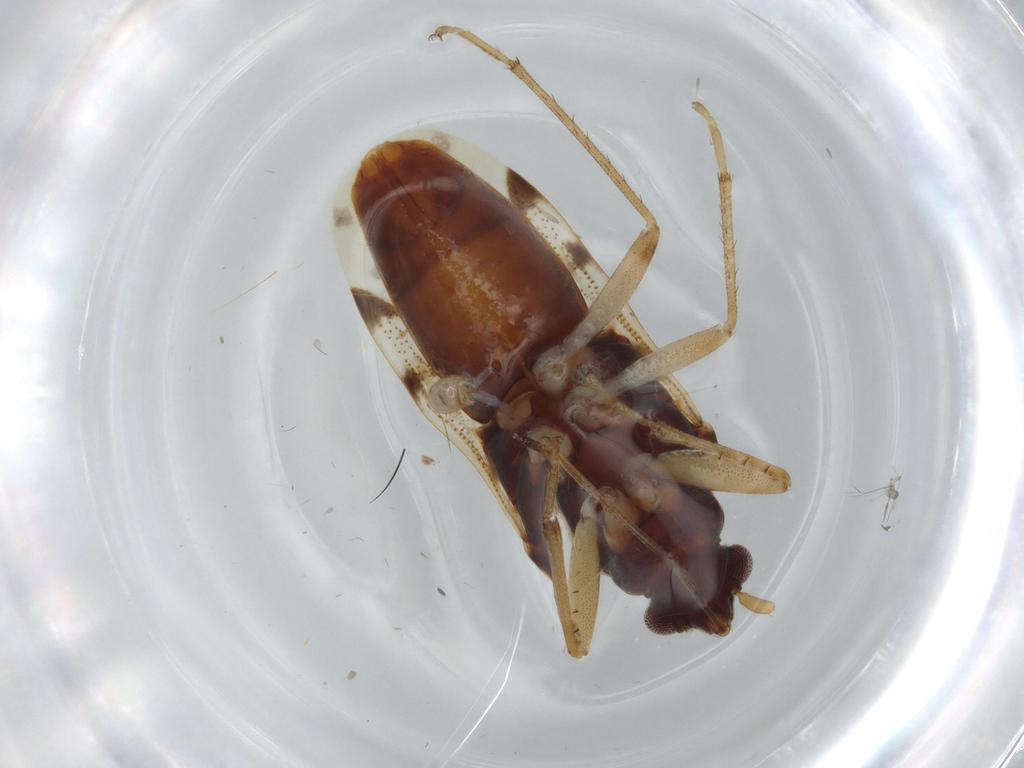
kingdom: Animalia
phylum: Arthropoda
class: Insecta
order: Hemiptera
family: Rhyparochromidae
